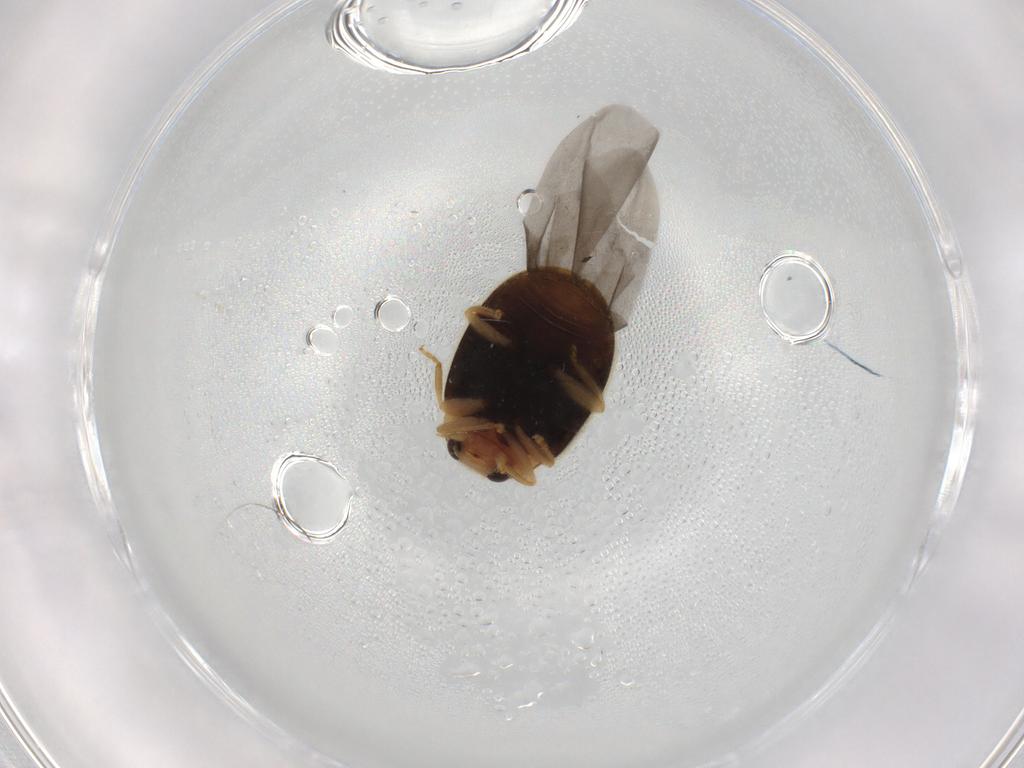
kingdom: Animalia
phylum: Arthropoda
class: Insecta
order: Coleoptera
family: Coccinellidae
